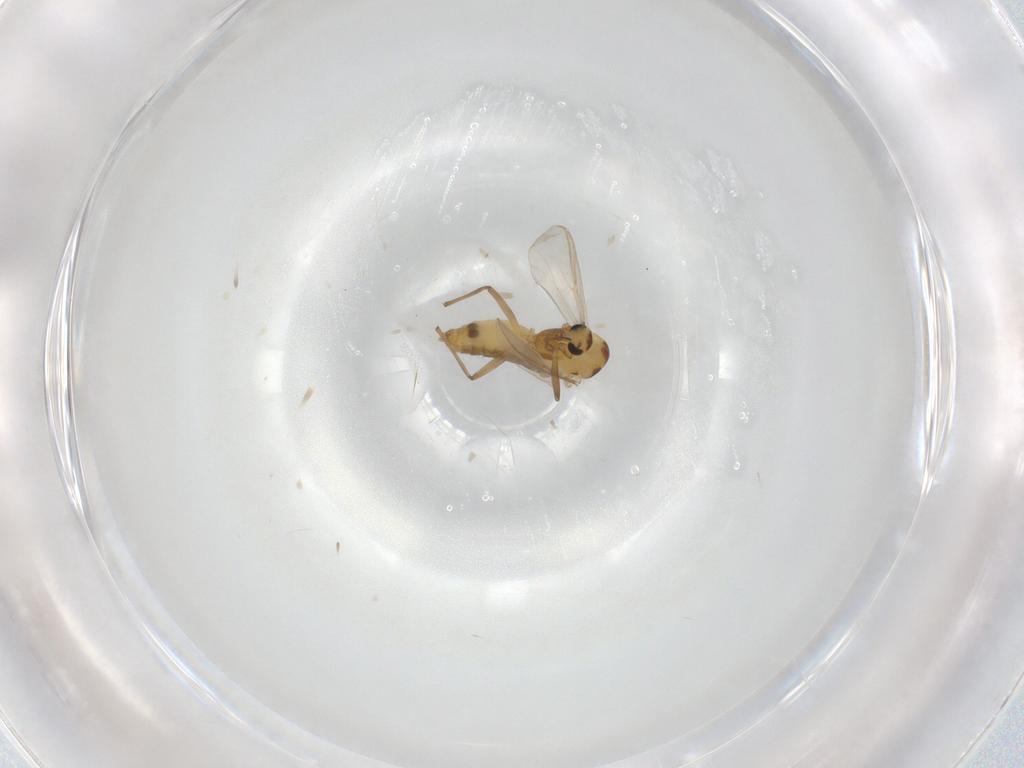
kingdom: Animalia
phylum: Arthropoda
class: Insecta
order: Diptera
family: Chironomidae
